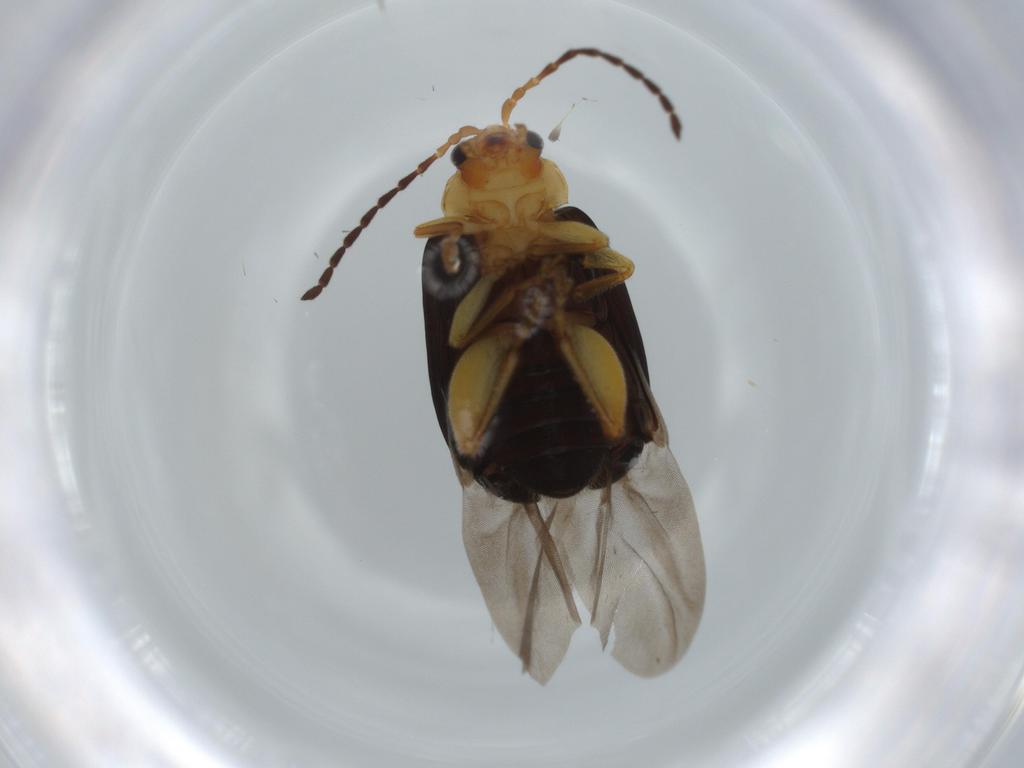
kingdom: Animalia
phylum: Arthropoda
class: Insecta
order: Coleoptera
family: Chrysomelidae
